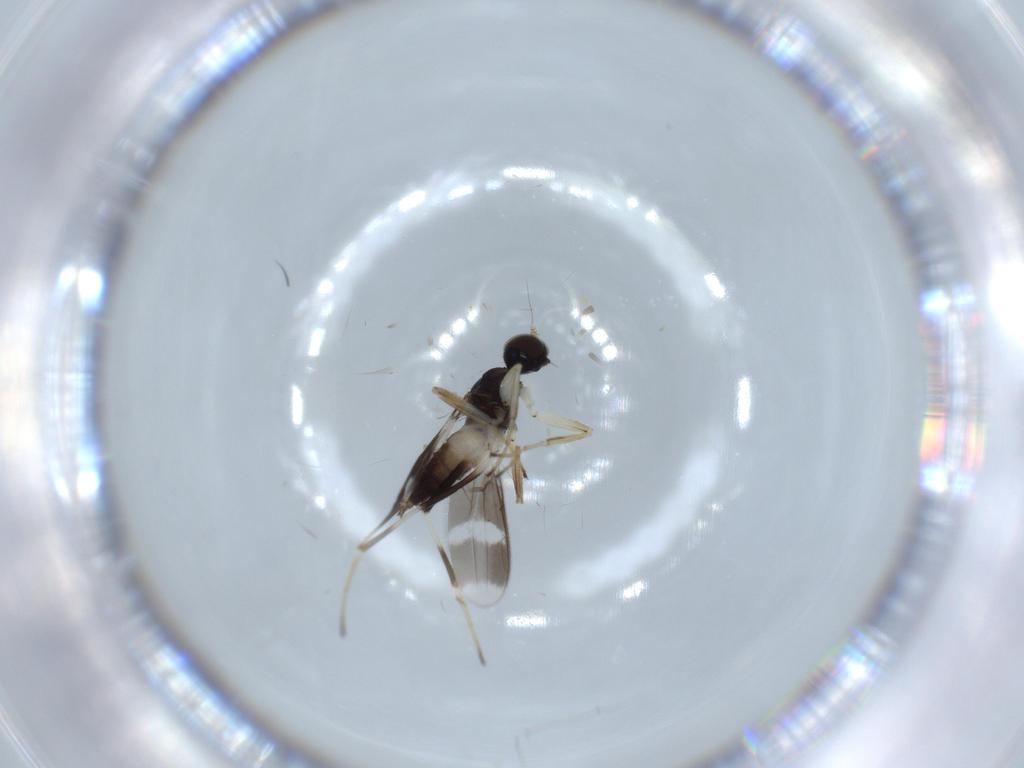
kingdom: Animalia
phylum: Arthropoda
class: Insecta
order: Diptera
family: Hybotidae
